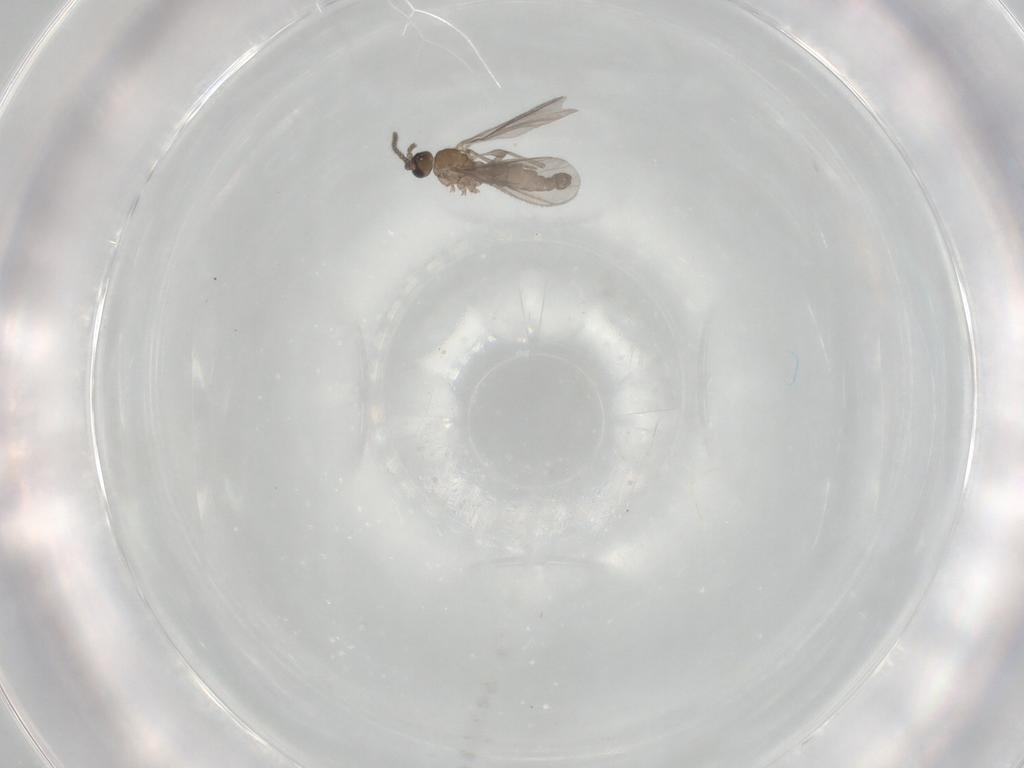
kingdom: Animalia
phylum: Arthropoda
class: Insecta
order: Diptera
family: Sciaridae
